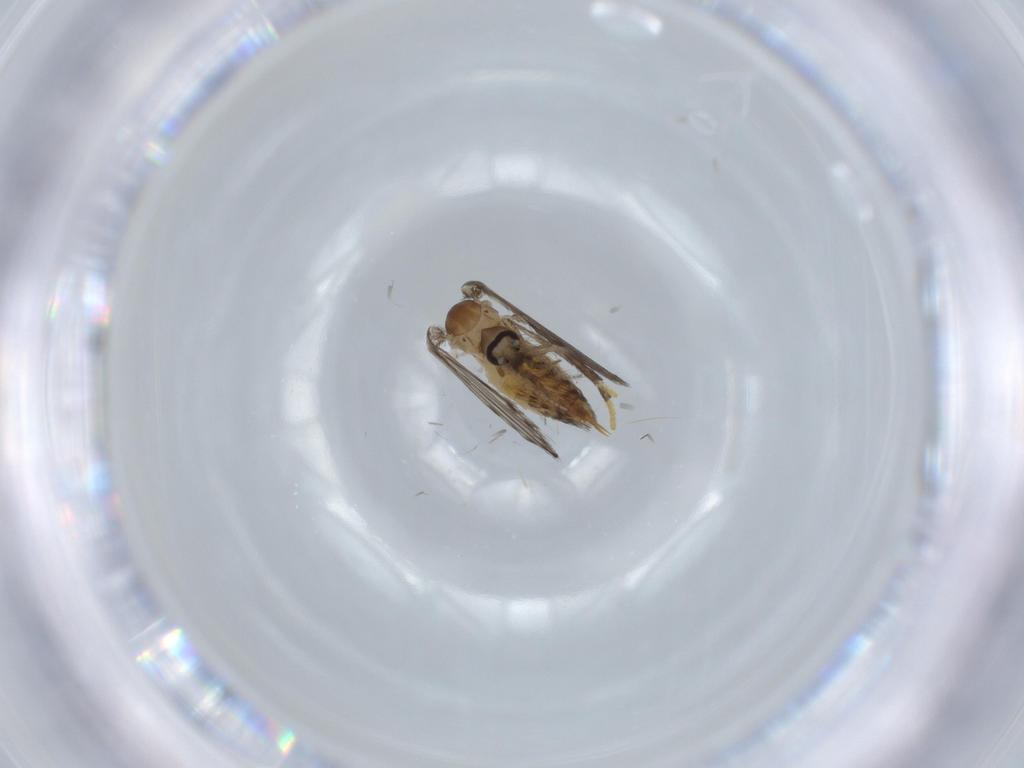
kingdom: Animalia
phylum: Arthropoda
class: Insecta
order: Diptera
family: Psychodidae
